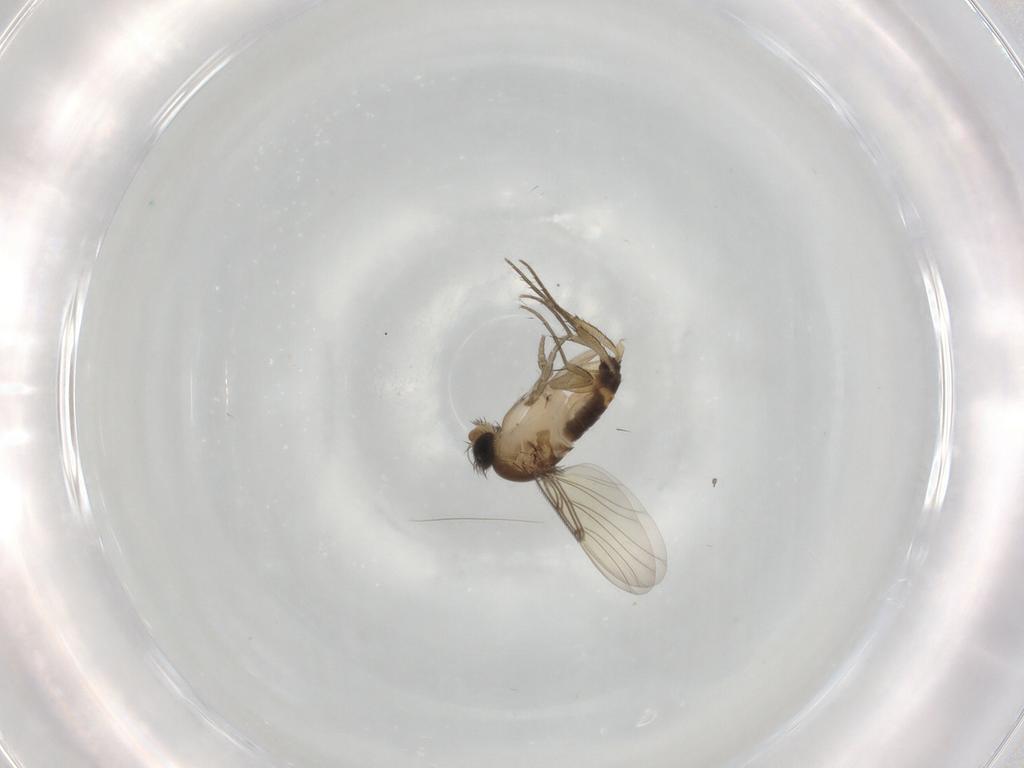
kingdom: Animalia
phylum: Arthropoda
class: Insecta
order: Diptera
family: Phoridae
